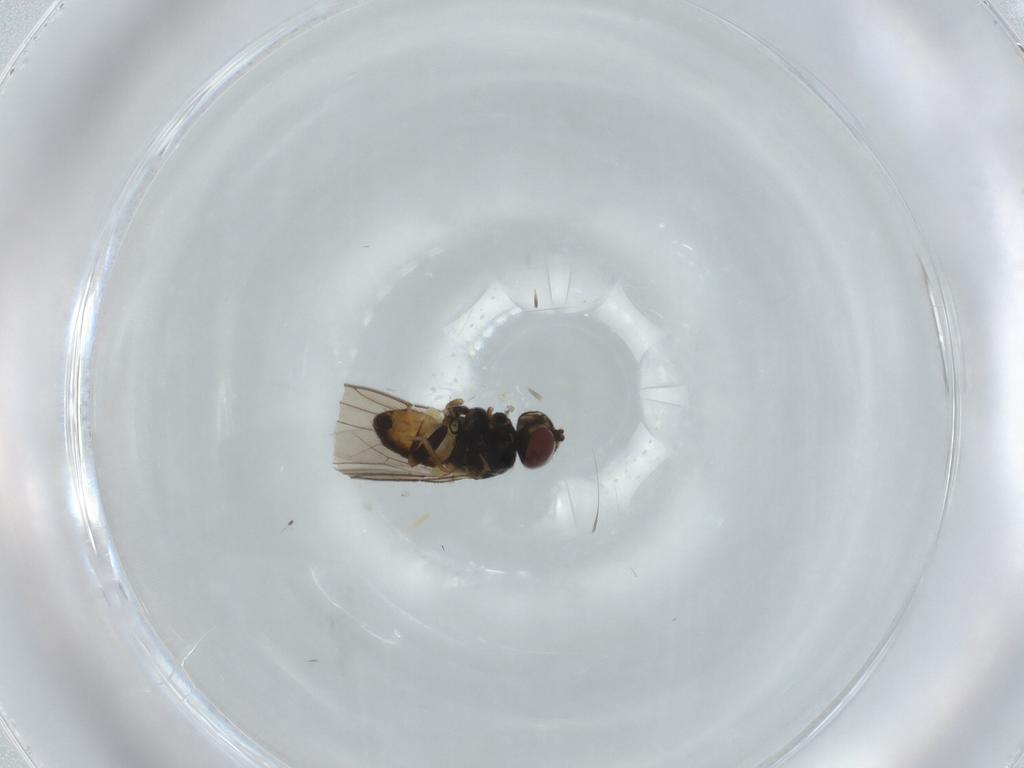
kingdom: Animalia
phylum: Arthropoda
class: Insecta
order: Diptera
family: Chloropidae
